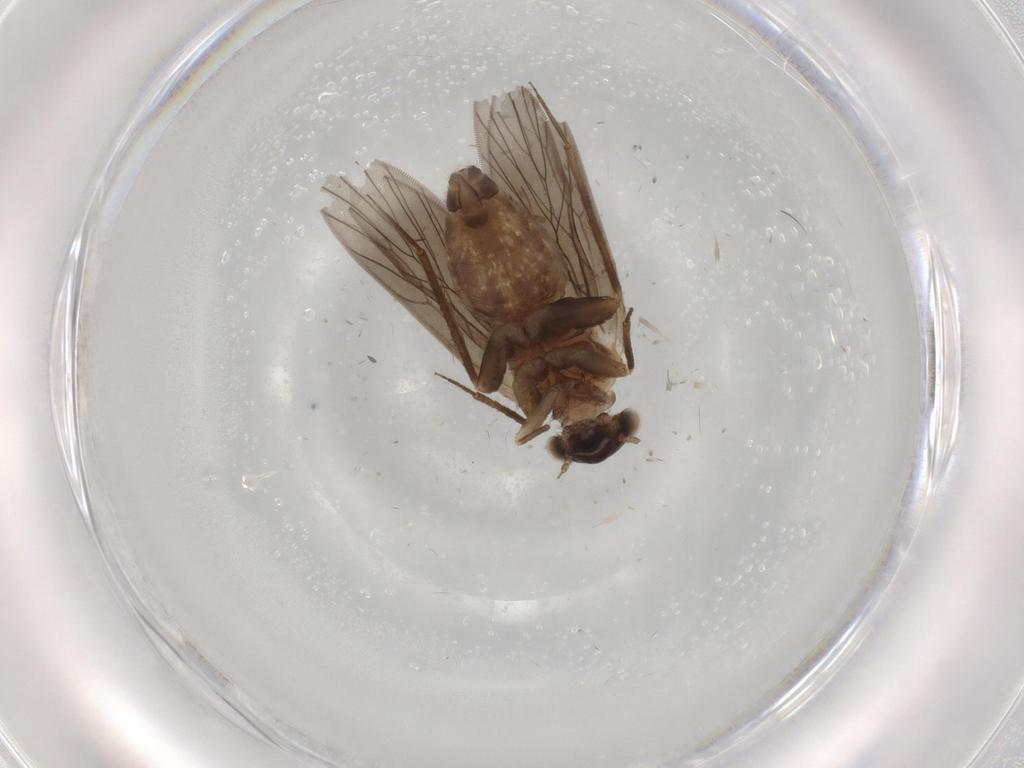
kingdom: Animalia
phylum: Arthropoda
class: Insecta
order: Psocodea
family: Lepidopsocidae
